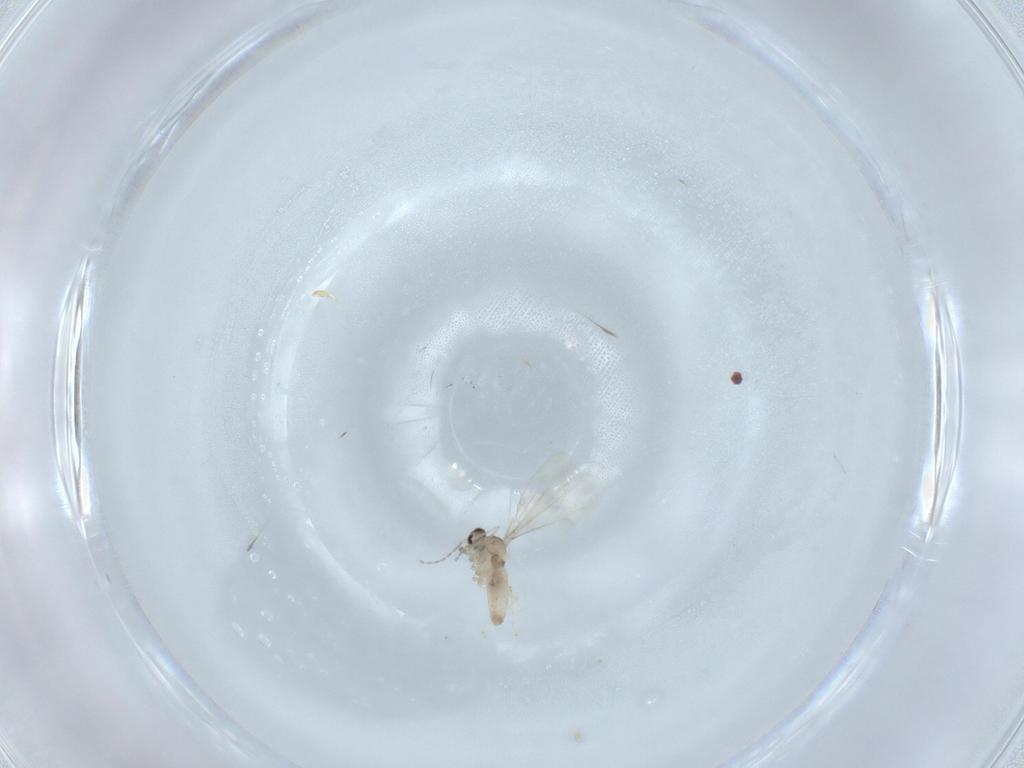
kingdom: Animalia
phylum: Arthropoda
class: Insecta
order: Diptera
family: Cecidomyiidae
